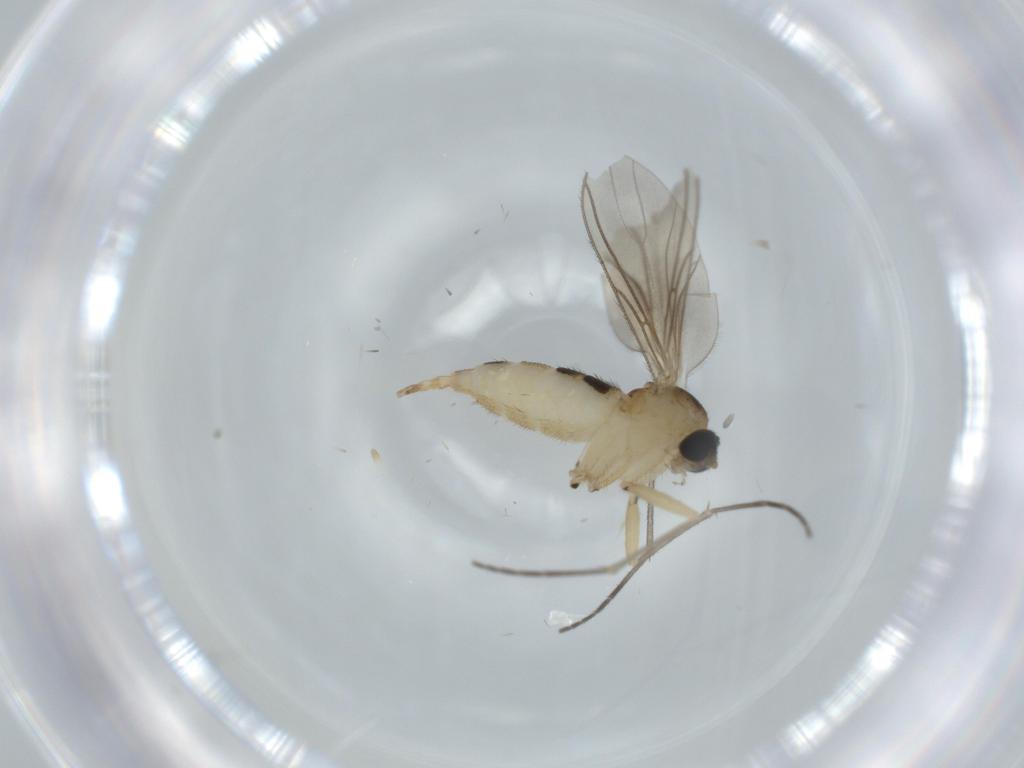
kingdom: Animalia
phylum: Arthropoda
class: Insecta
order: Diptera
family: Sciaridae
